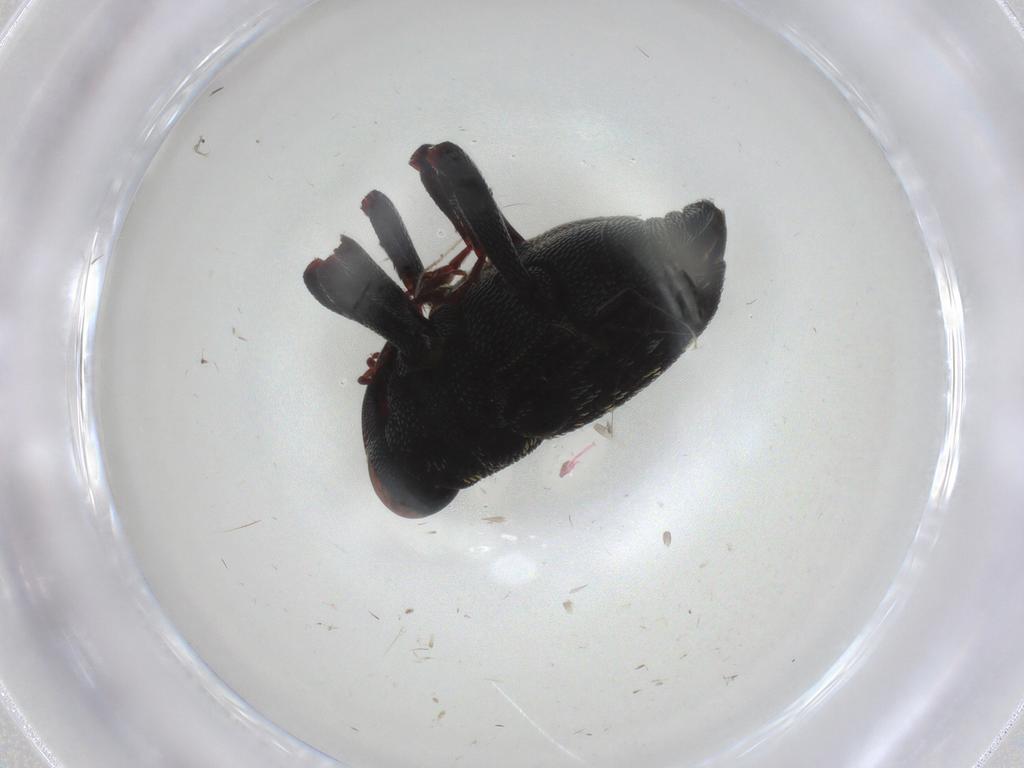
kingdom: Animalia
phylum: Arthropoda
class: Insecta
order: Coleoptera
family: Curculionidae
